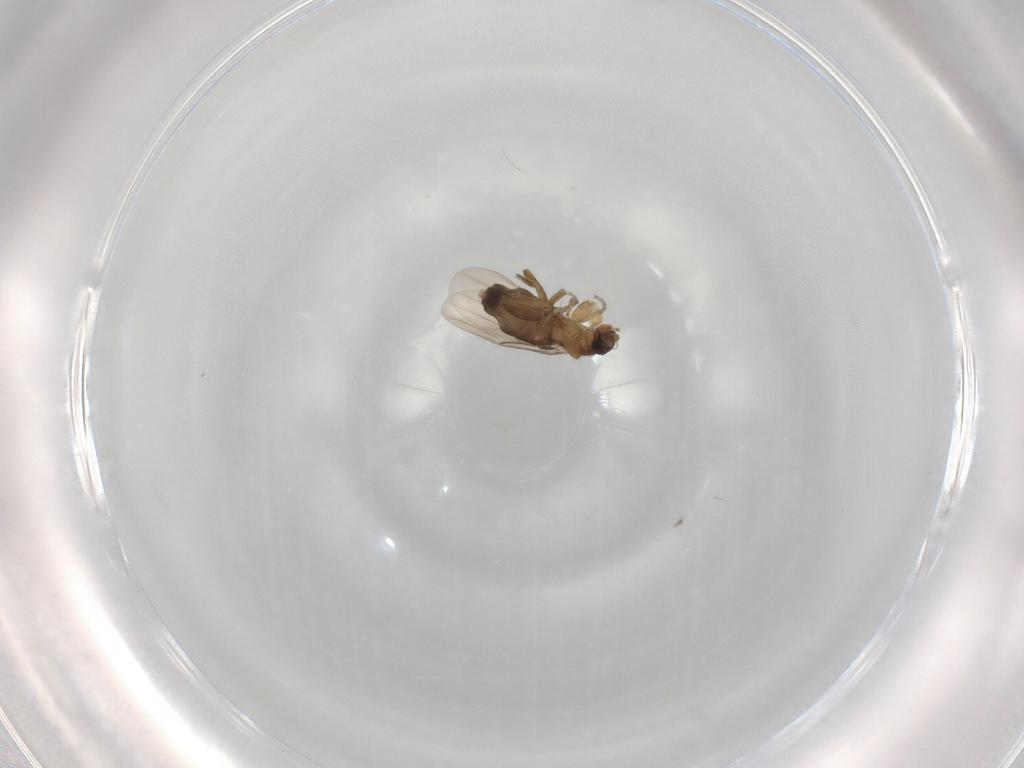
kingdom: Animalia
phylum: Arthropoda
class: Insecta
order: Diptera
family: Phoridae
